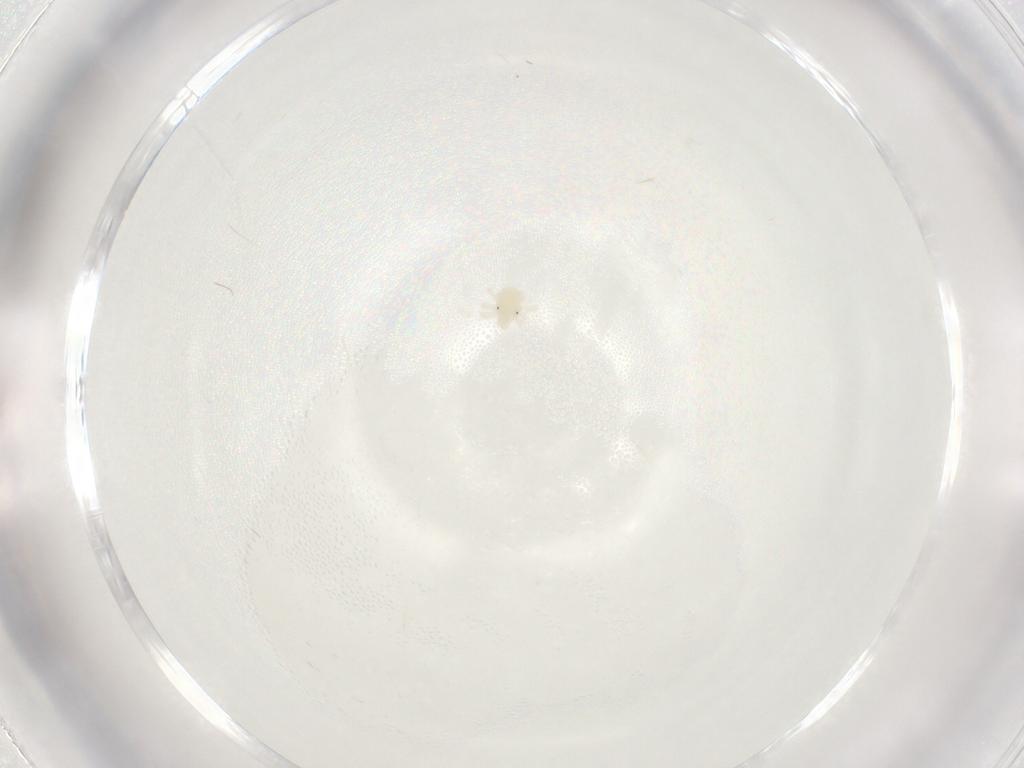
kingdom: Animalia
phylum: Arthropoda
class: Arachnida
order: Trombidiformes
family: Anystidae
